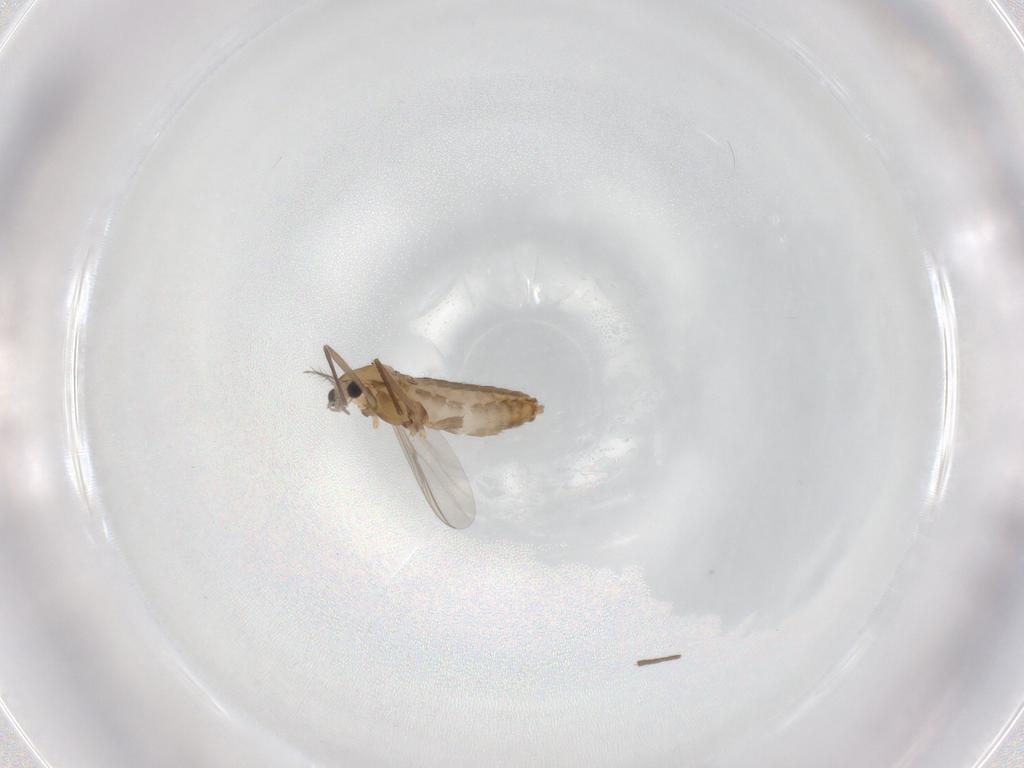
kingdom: Animalia
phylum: Arthropoda
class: Insecta
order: Diptera
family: Chironomidae
